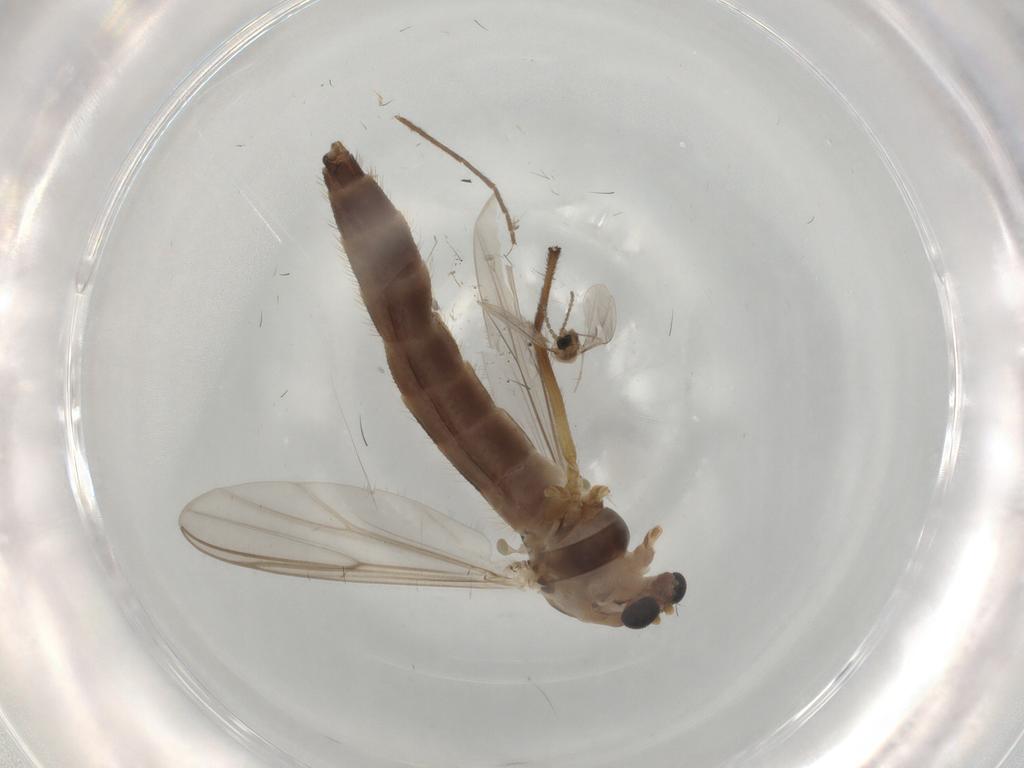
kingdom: Animalia
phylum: Arthropoda
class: Insecta
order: Diptera
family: Chironomidae
